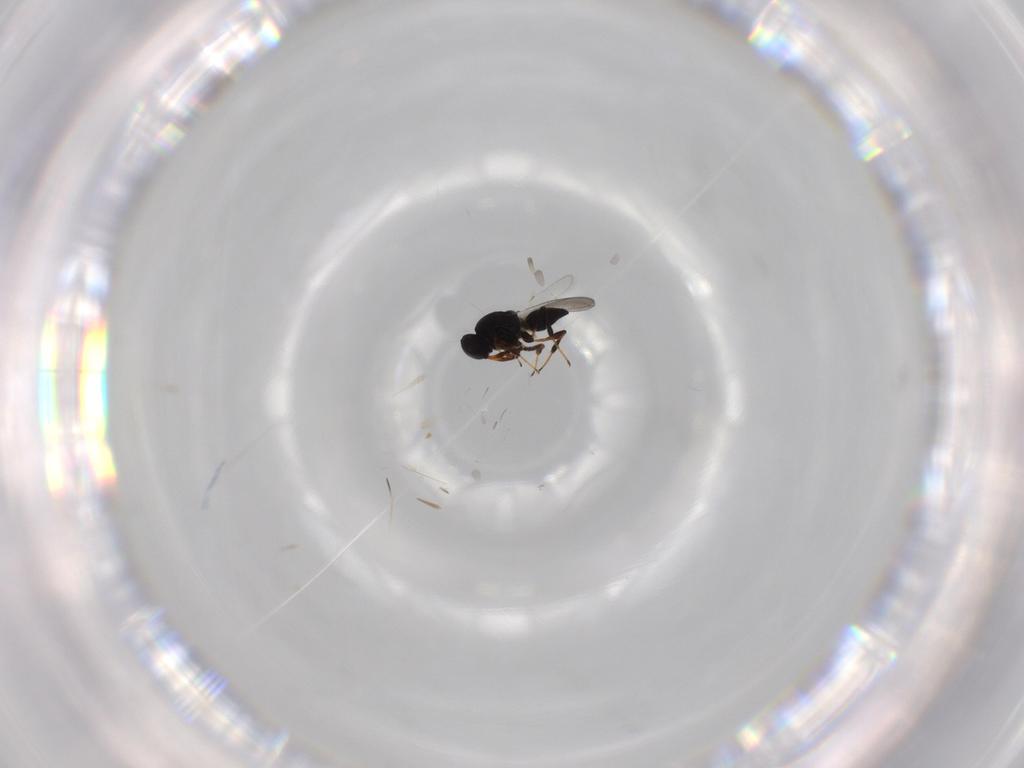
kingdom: Animalia
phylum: Arthropoda
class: Insecta
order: Hymenoptera
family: Platygastridae
